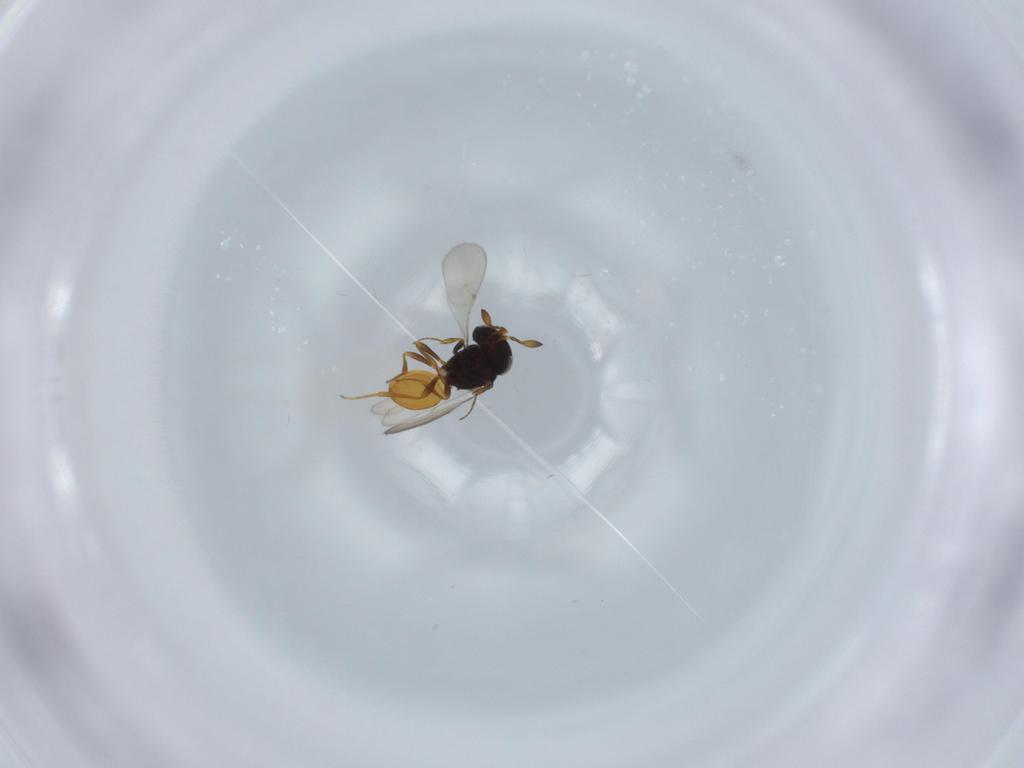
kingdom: Animalia
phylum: Arthropoda
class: Insecta
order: Hymenoptera
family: Scelionidae
